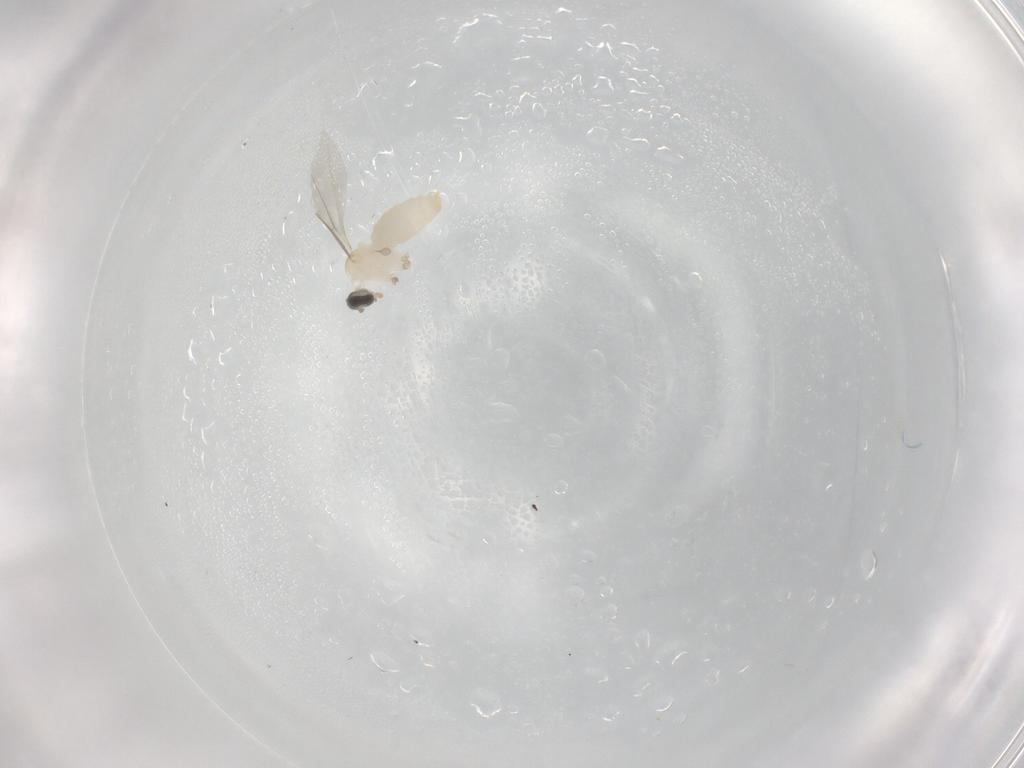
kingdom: Animalia
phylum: Arthropoda
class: Insecta
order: Diptera
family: Cecidomyiidae
